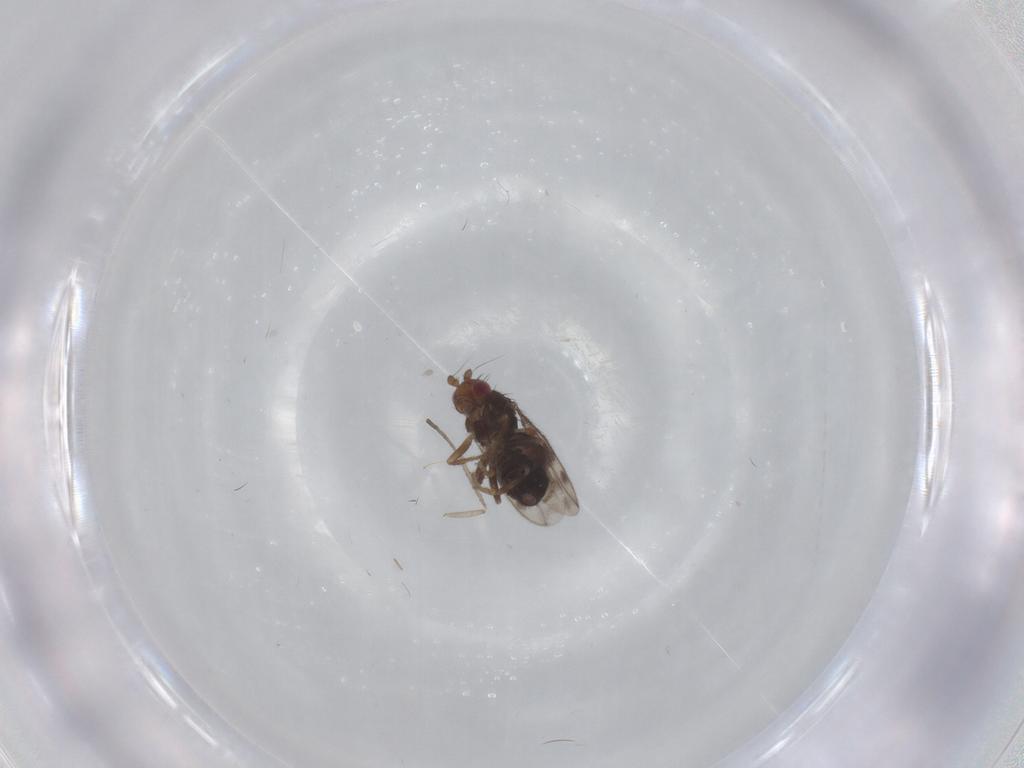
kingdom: Animalia
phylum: Arthropoda
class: Insecta
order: Diptera
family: Sphaeroceridae
